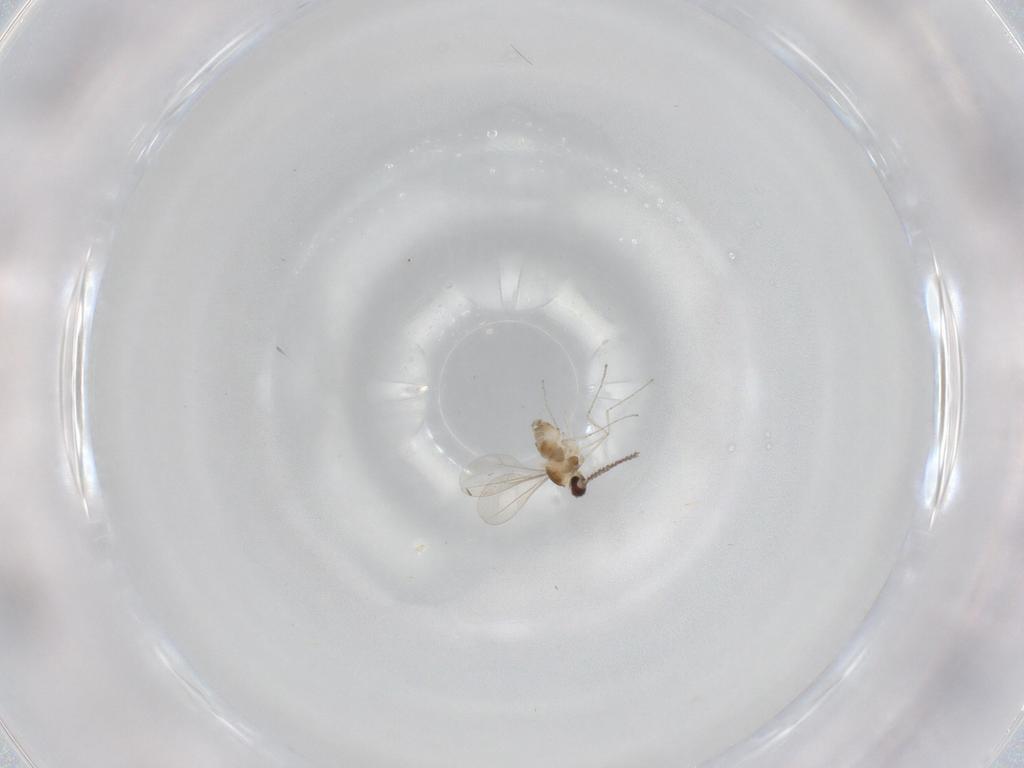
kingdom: Animalia
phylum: Arthropoda
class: Insecta
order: Diptera
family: Cecidomyiidae
